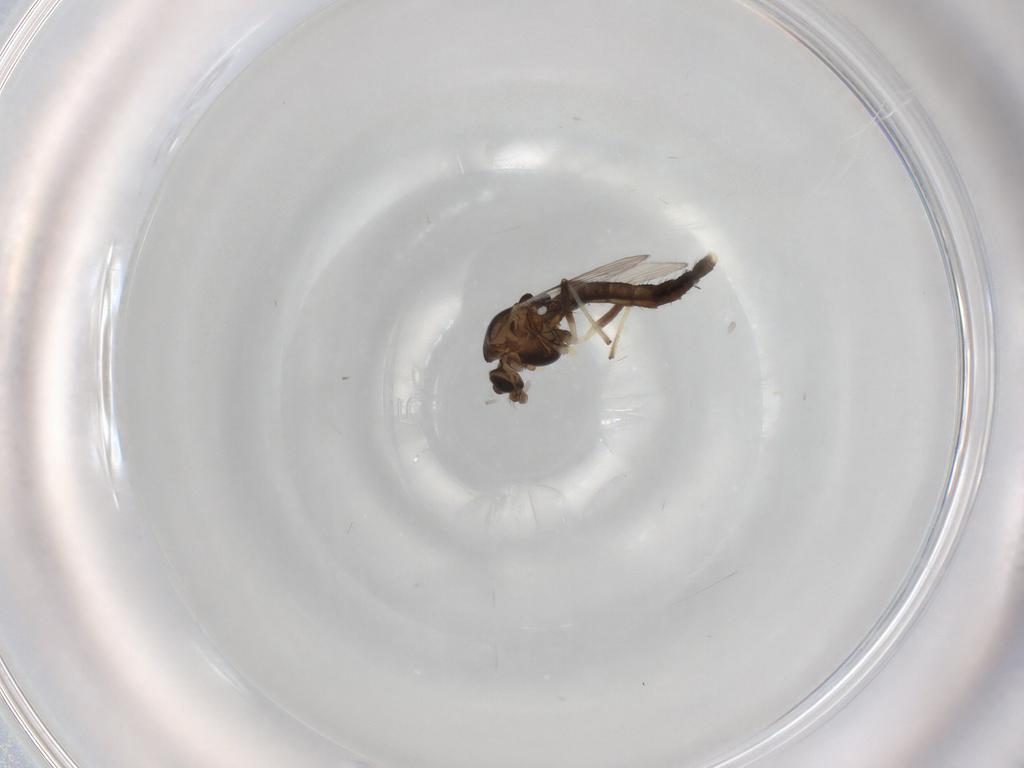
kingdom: Animalia
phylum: Arthropoda
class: Insecta
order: Diptera
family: Chironomidae
